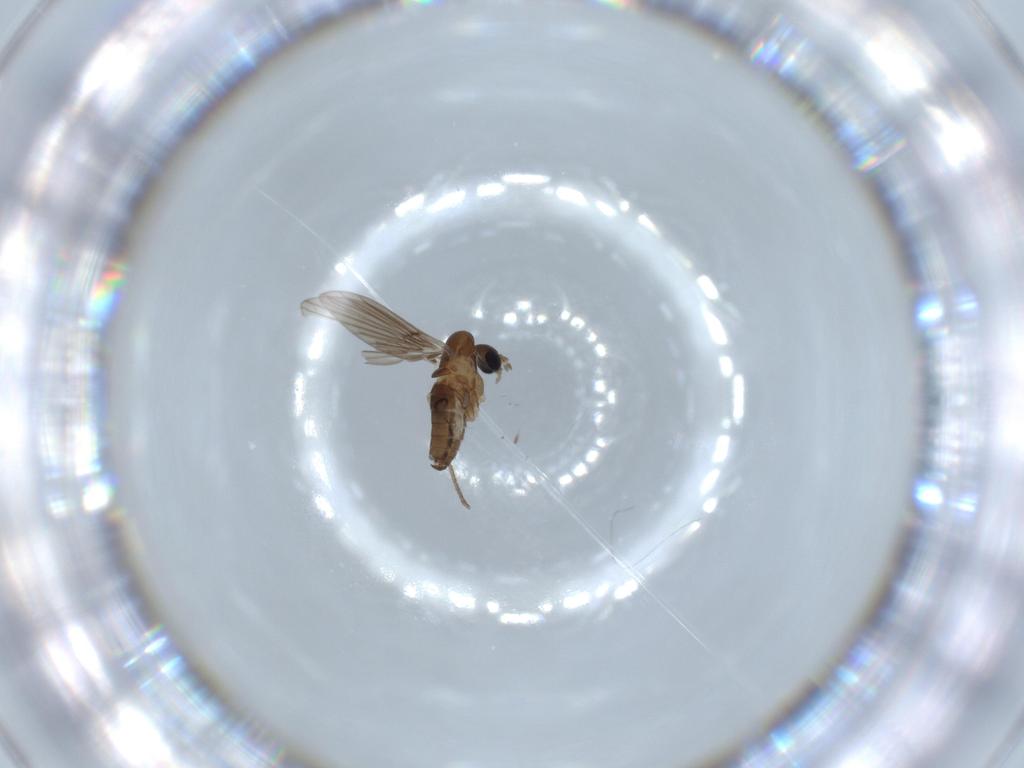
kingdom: Animalia
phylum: Arthropoda
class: Insecta
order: Diptera
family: Psychodidae
